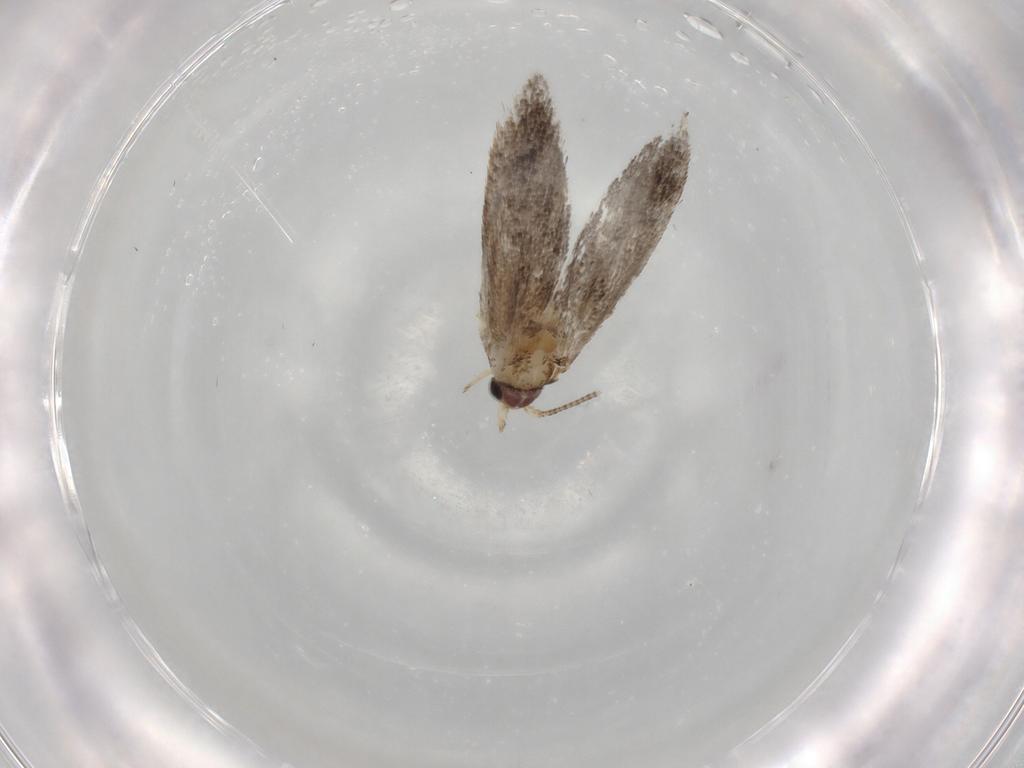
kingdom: Animalia
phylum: Arthropoda
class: Insecta
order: Lepidoptera
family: Nepticulidae
